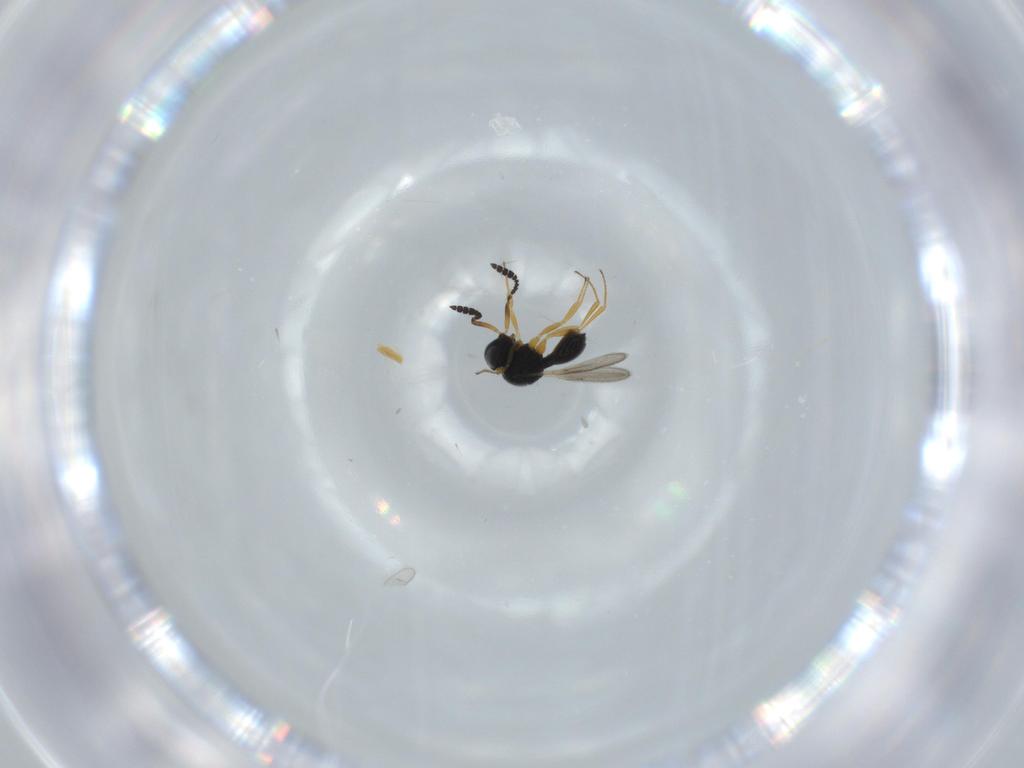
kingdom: Animalia
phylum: Arthropoda
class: Insecta
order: Hymenoptera
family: Scelionidae
